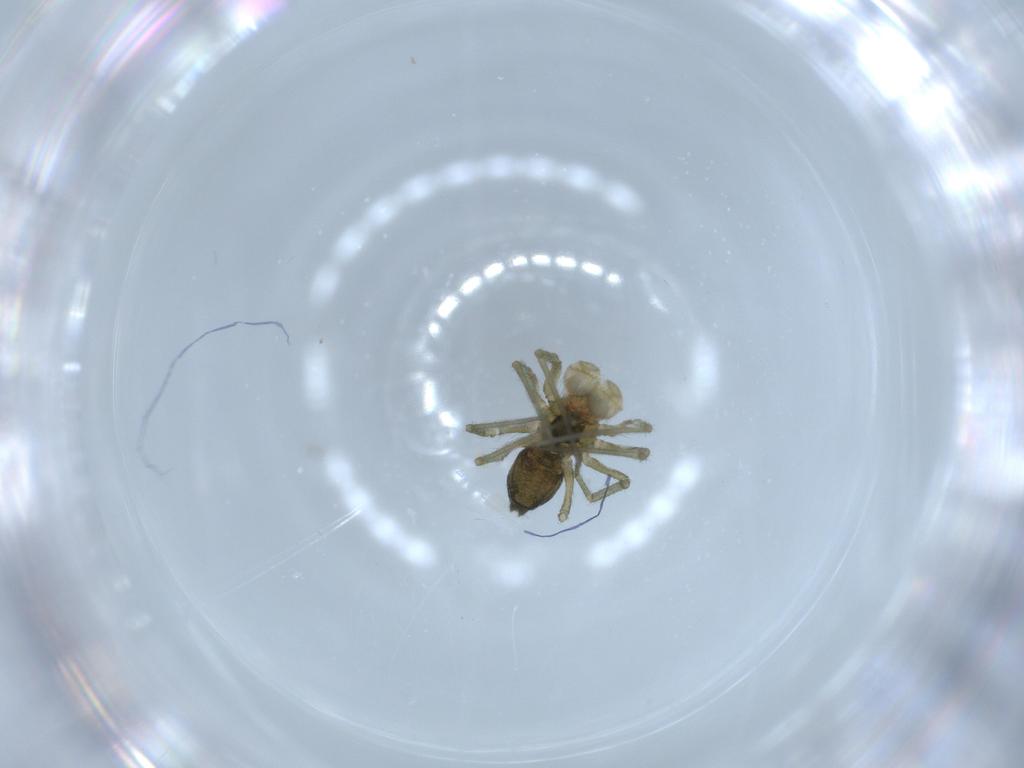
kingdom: Animalia
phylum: Arthropoda
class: Arachnida
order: Araneae
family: Linyphiidae
